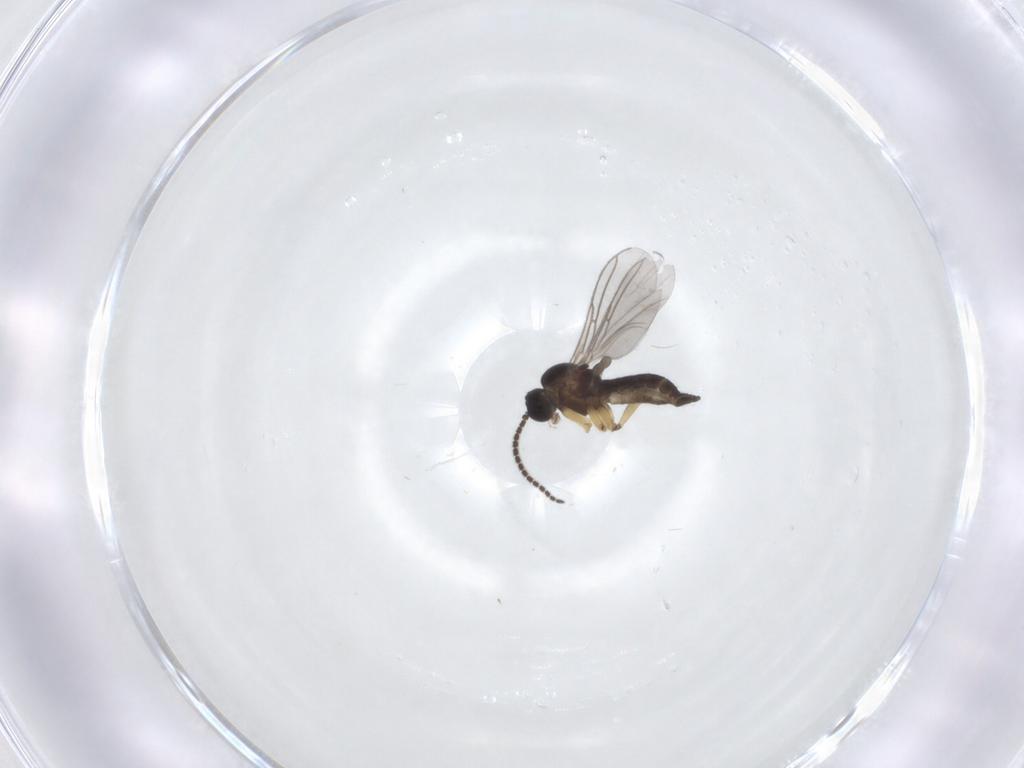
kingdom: Animalia
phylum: Arthropoda
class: Insecta
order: Diptera
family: Sciaridae
